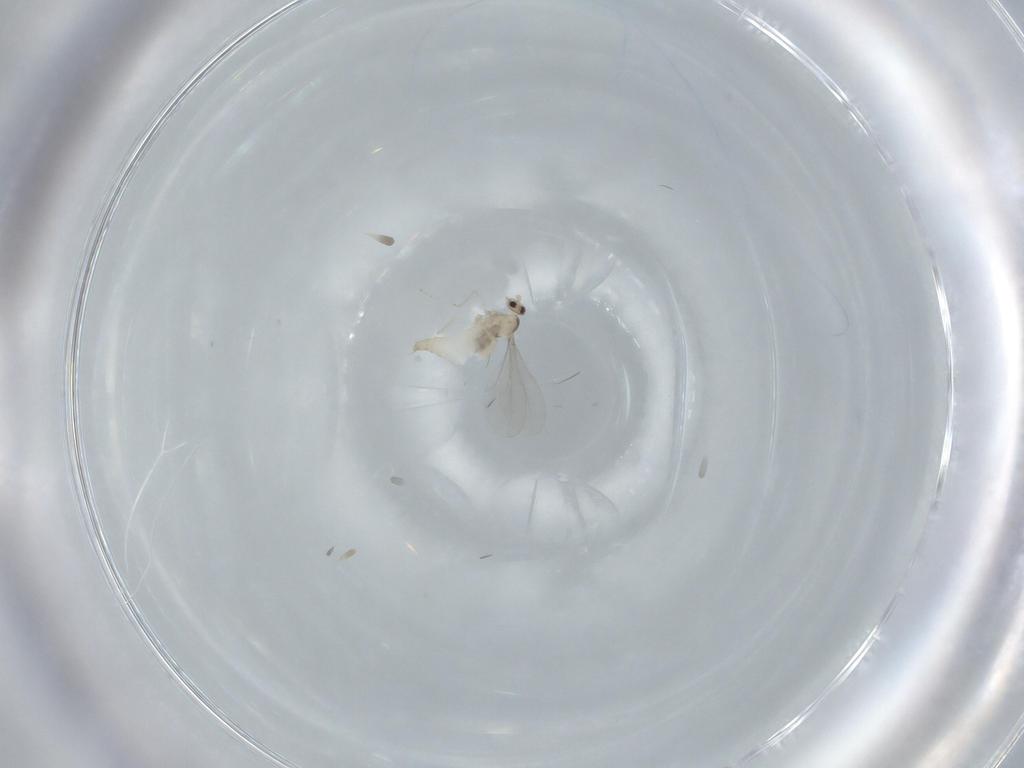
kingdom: Animalia
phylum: Arthropoda
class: Insecta
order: Diptera
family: Cecidomyiidae
